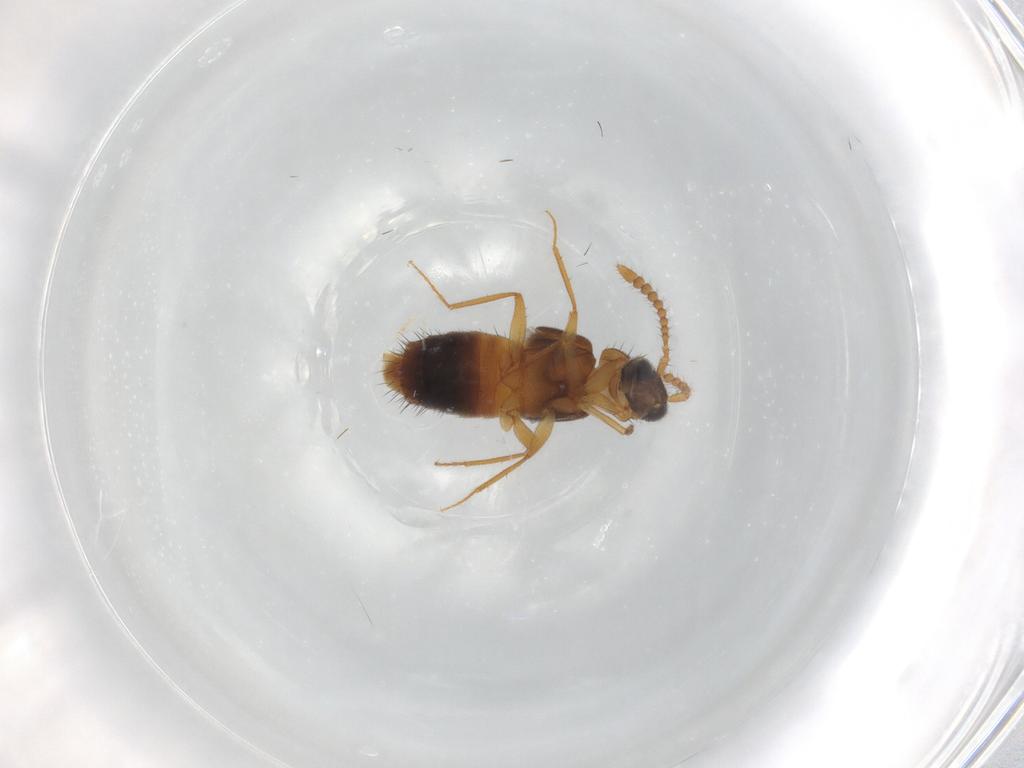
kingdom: Animalia
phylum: Arthropoda
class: Insecta
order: Coleoptera
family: Staphylinidae
